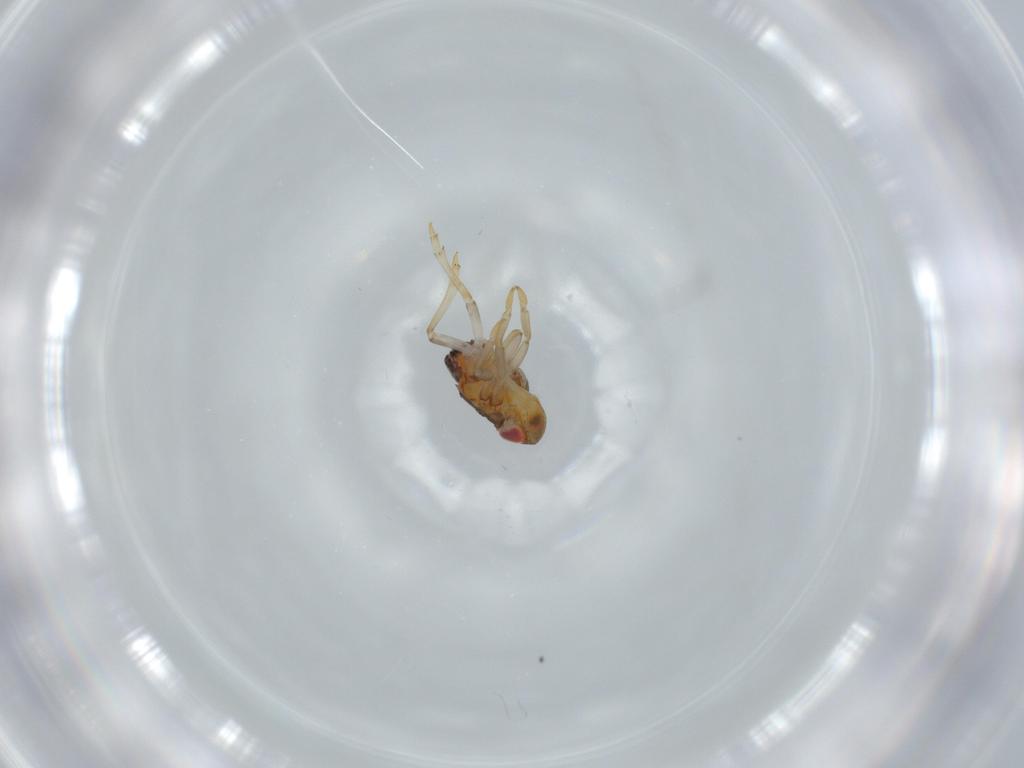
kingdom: Animalia
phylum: Arthropoda
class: Insecta
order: Hemiptera
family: Issidae
